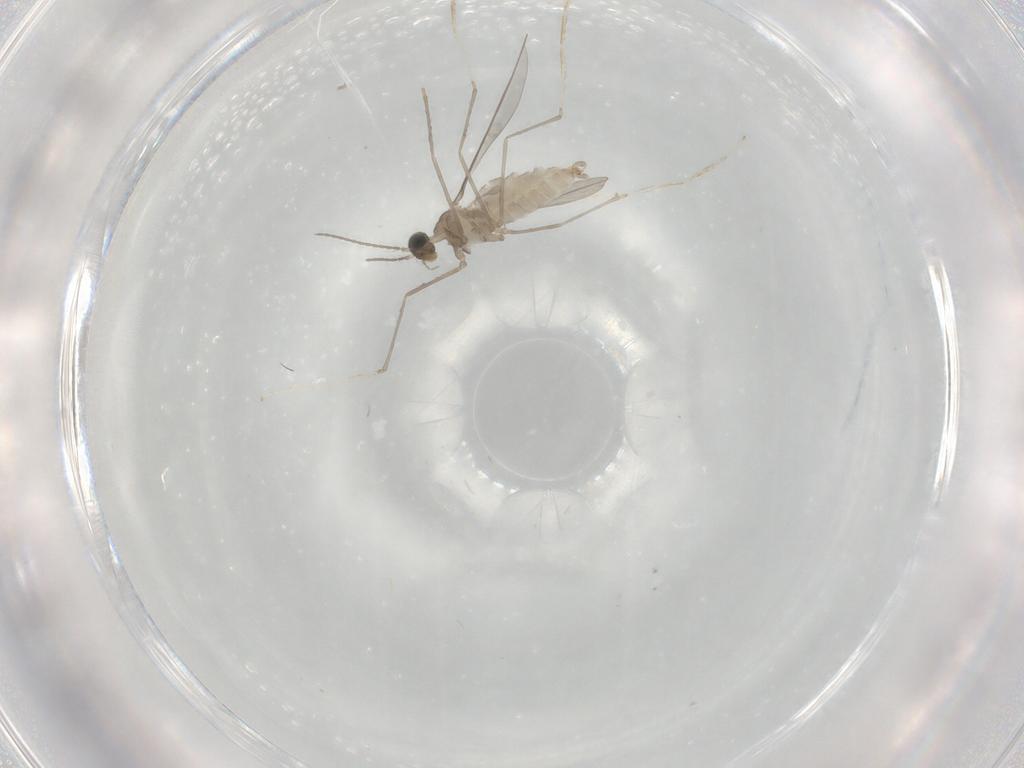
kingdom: Animalia
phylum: Arthropoda
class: Insecta
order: Diptera
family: Cecidomyiidae
